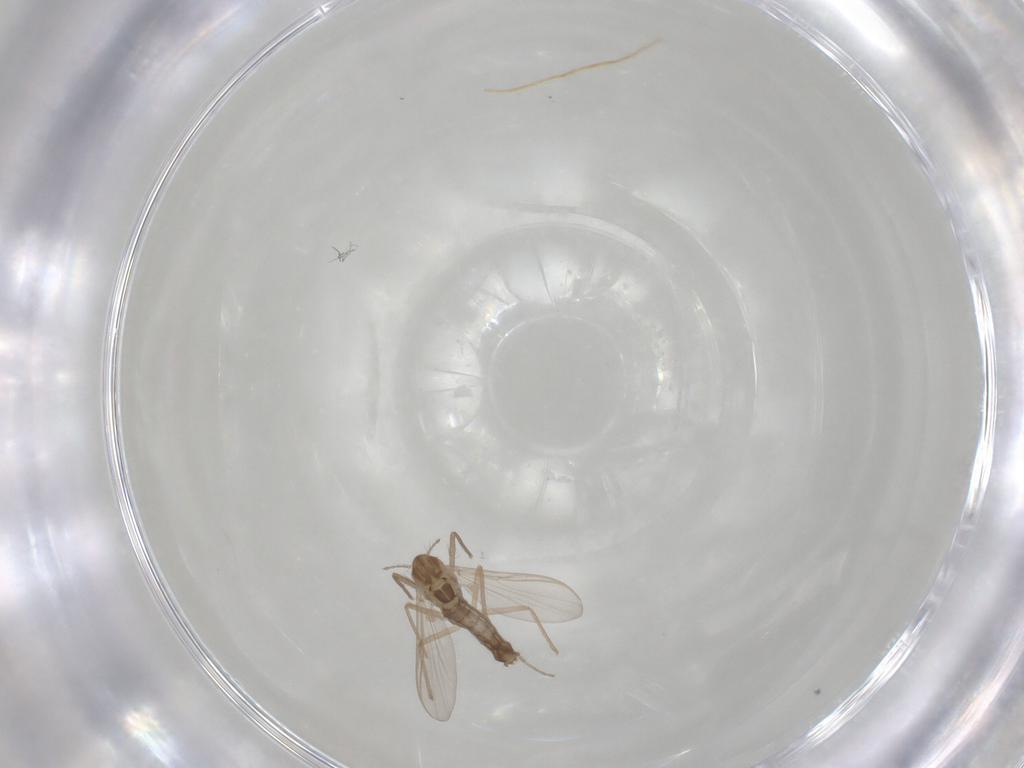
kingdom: Animalia
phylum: Arthropoda
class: Insecta
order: Diptera
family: Chironomidae
